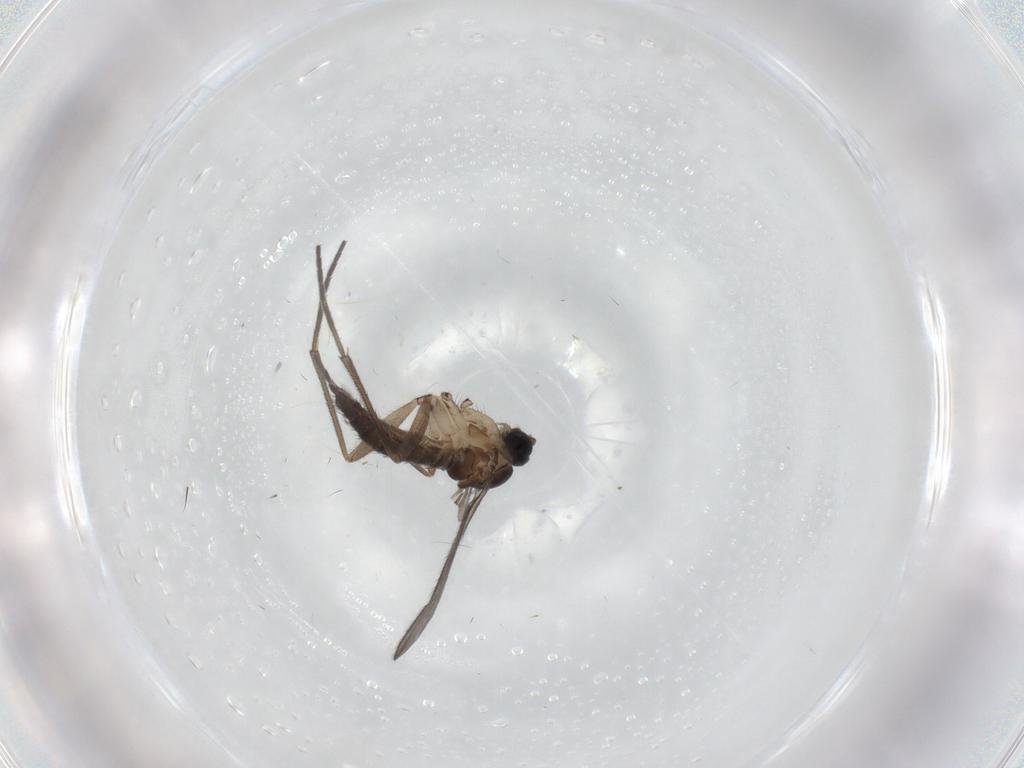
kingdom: Animalia
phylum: Arthropoda
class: Insecta
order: Diptera
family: Sciaridae
